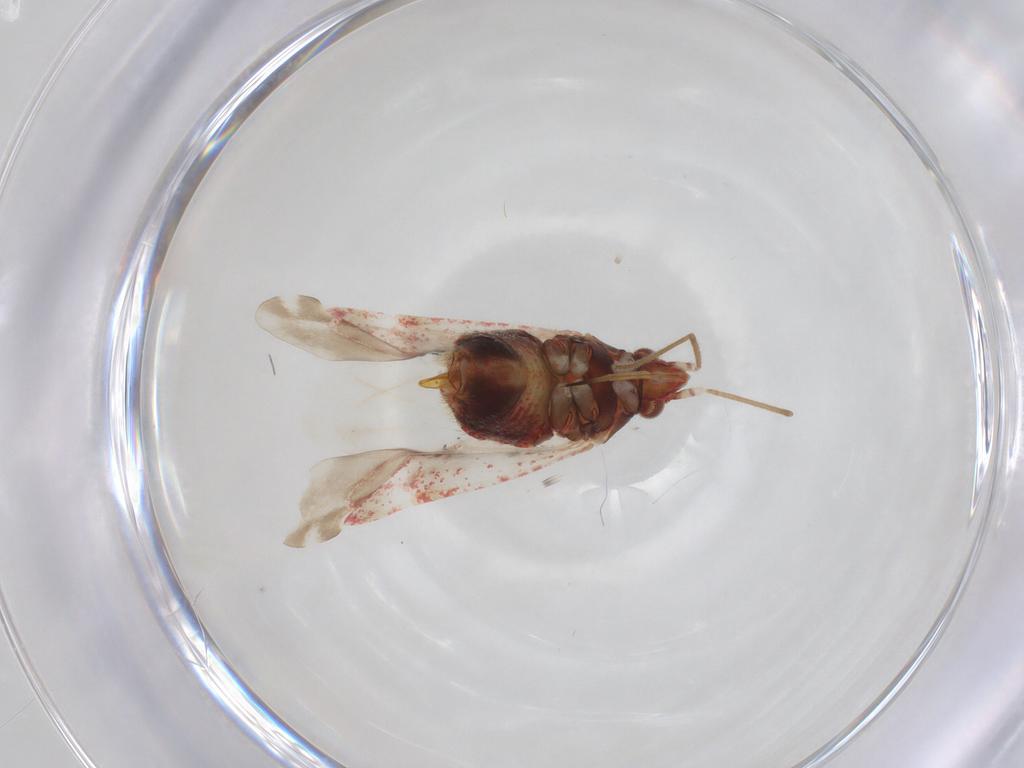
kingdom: Animalia
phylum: Arthropoda
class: Insecta
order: Hemiptera
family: Miridae
